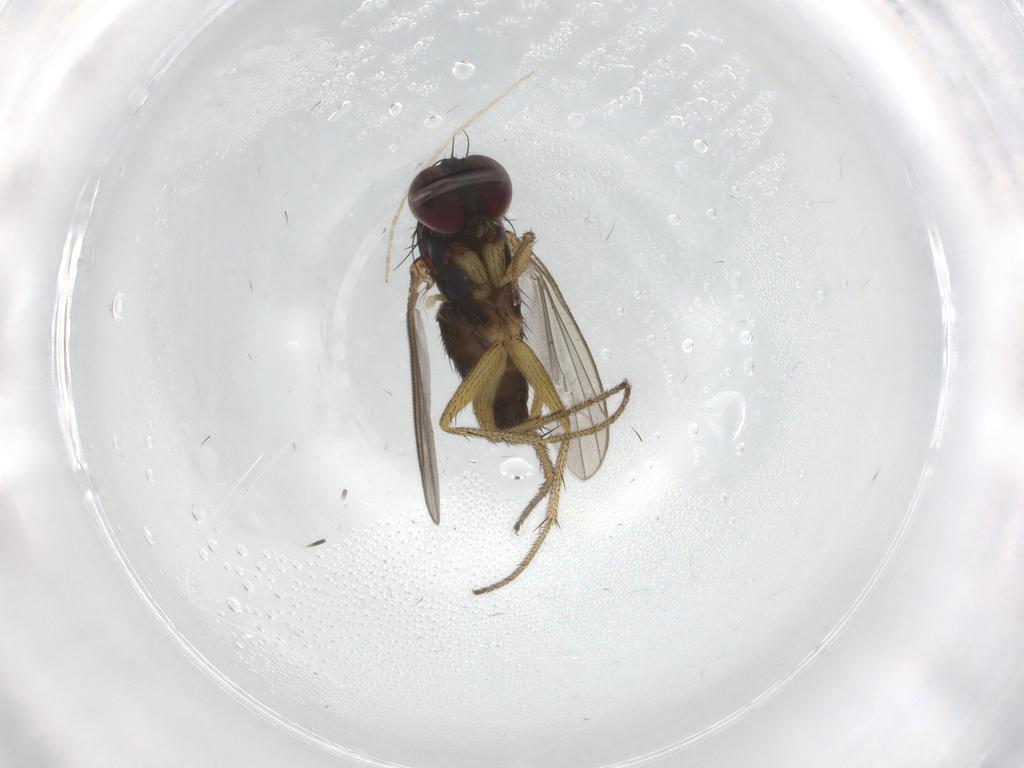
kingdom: Animalia
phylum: Arthropoda
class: Insecta
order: Diptera
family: Dolichopodidae
